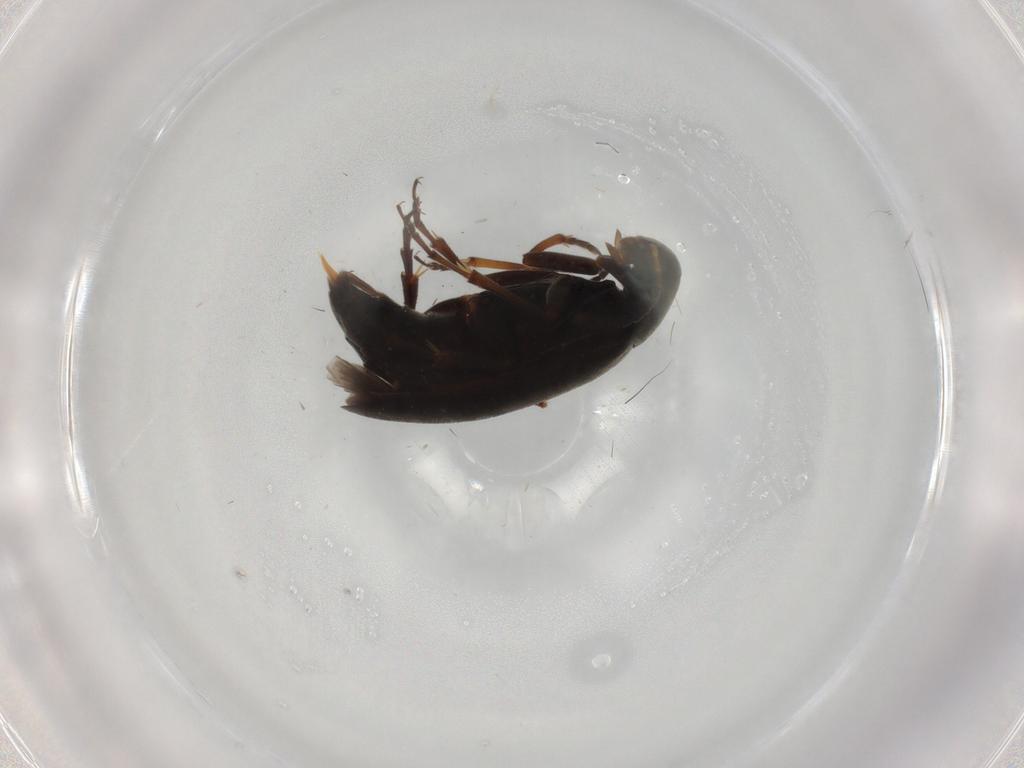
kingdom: Animalia
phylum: Arthropoda
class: Insecta
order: Coleoptera
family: Scraptiidae
